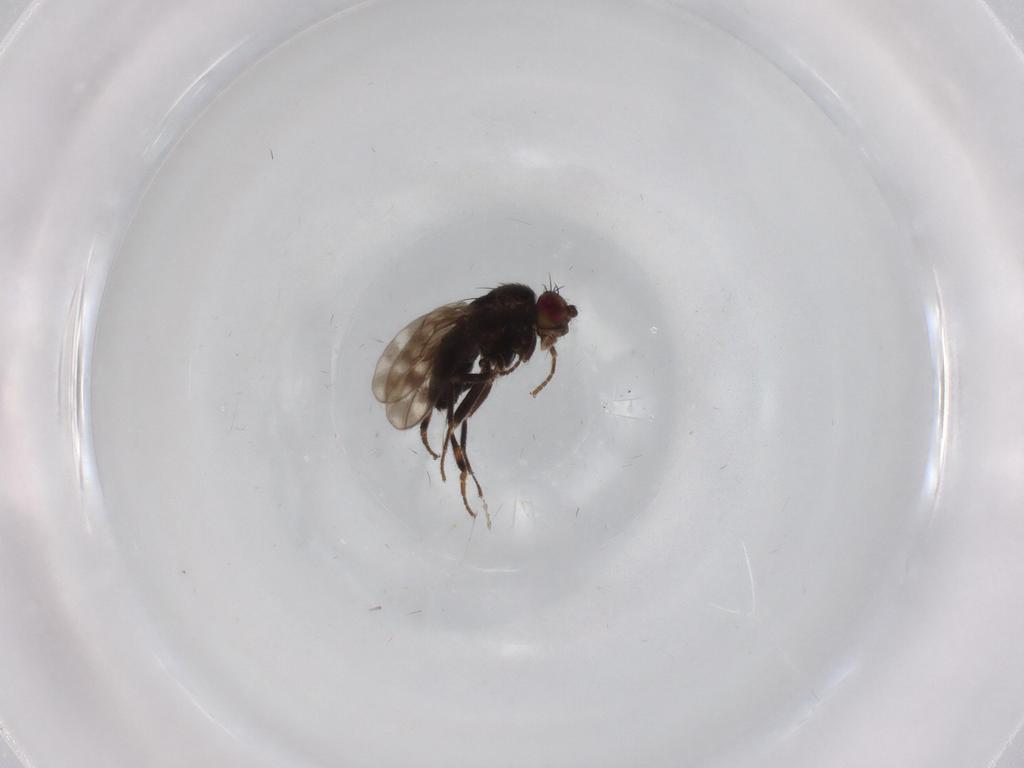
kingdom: Animalia
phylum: Arthropoda
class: Insecta
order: Diptera
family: Sphaeroceridae
